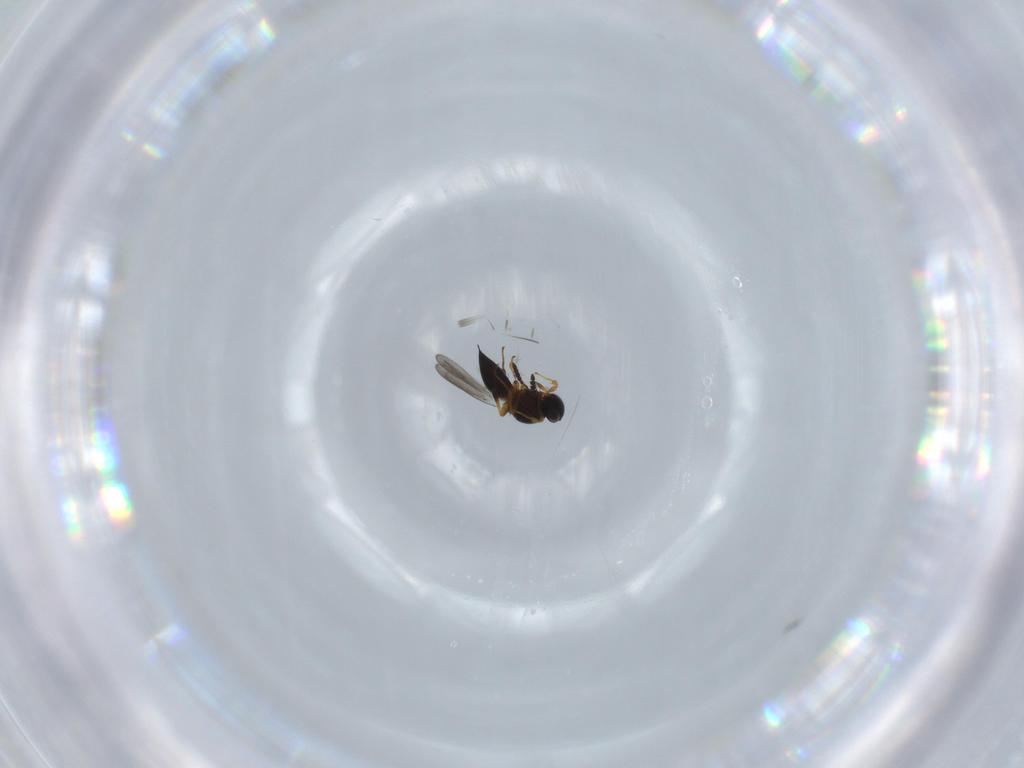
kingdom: Animalia
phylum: Arthropoda
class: Insecta
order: Hymenoptera
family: Platygastridae
